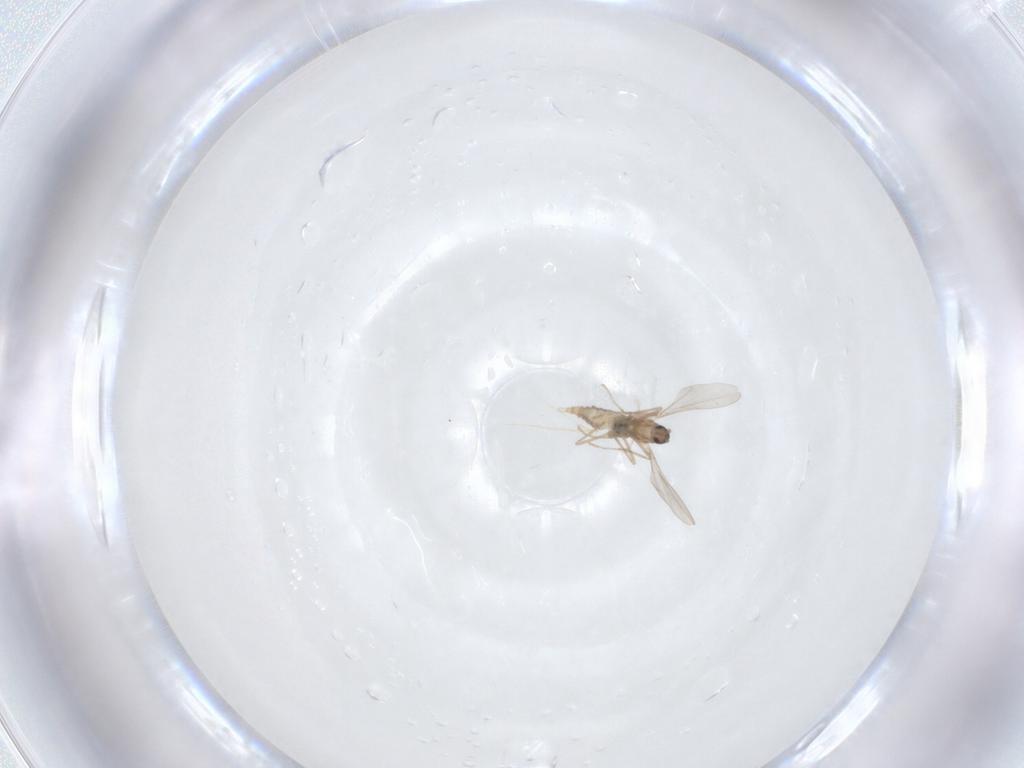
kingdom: Animalia
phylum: Arthropoda
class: Insecta
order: Diptera
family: Cecidomyiidae
